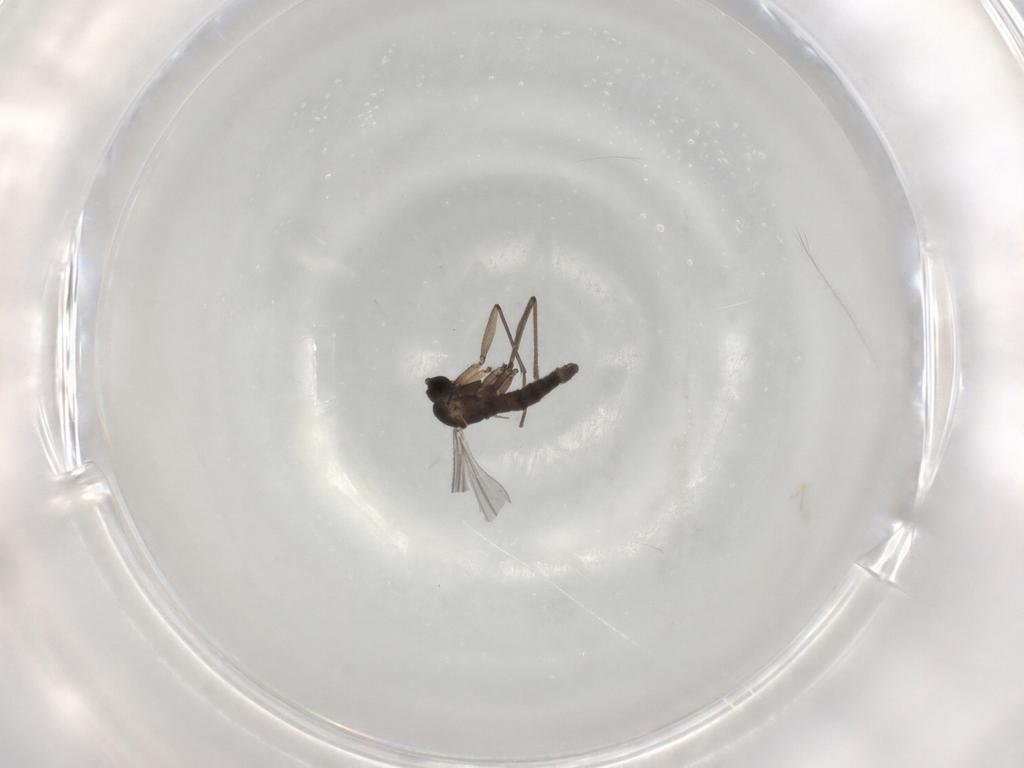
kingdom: Animalia
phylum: Arthropoda
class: Insecta
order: Diptera
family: Sciaridae
